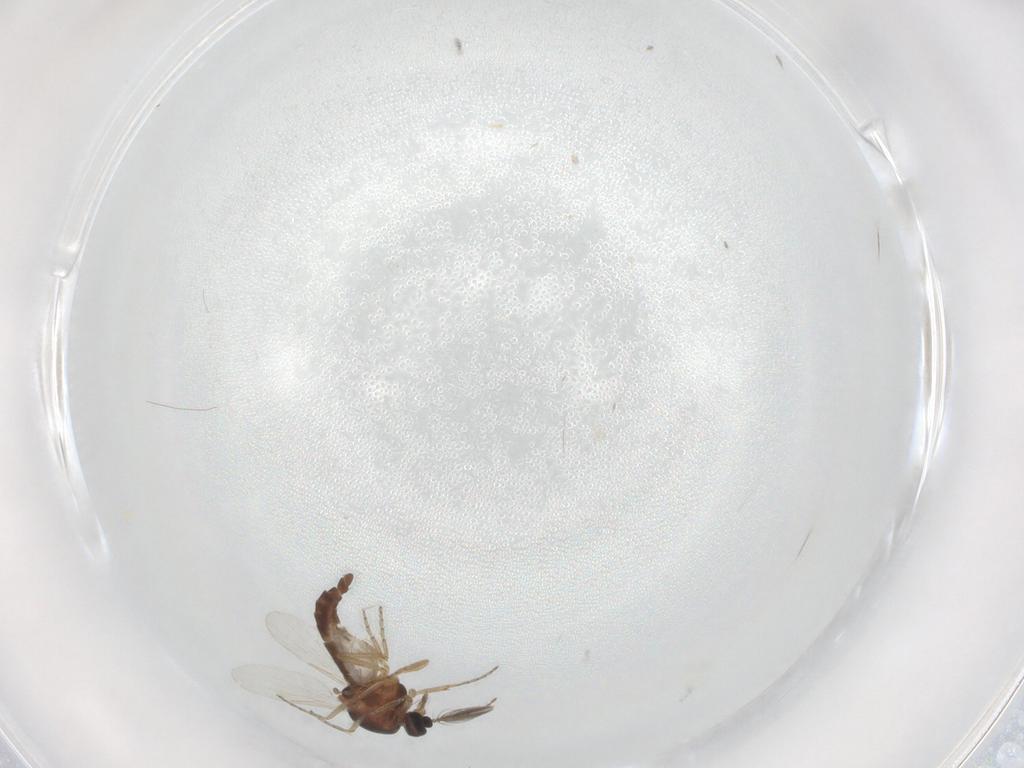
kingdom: Animalia
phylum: Arthropoda
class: Insecta
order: Diptera
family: Ceratopogonidae
